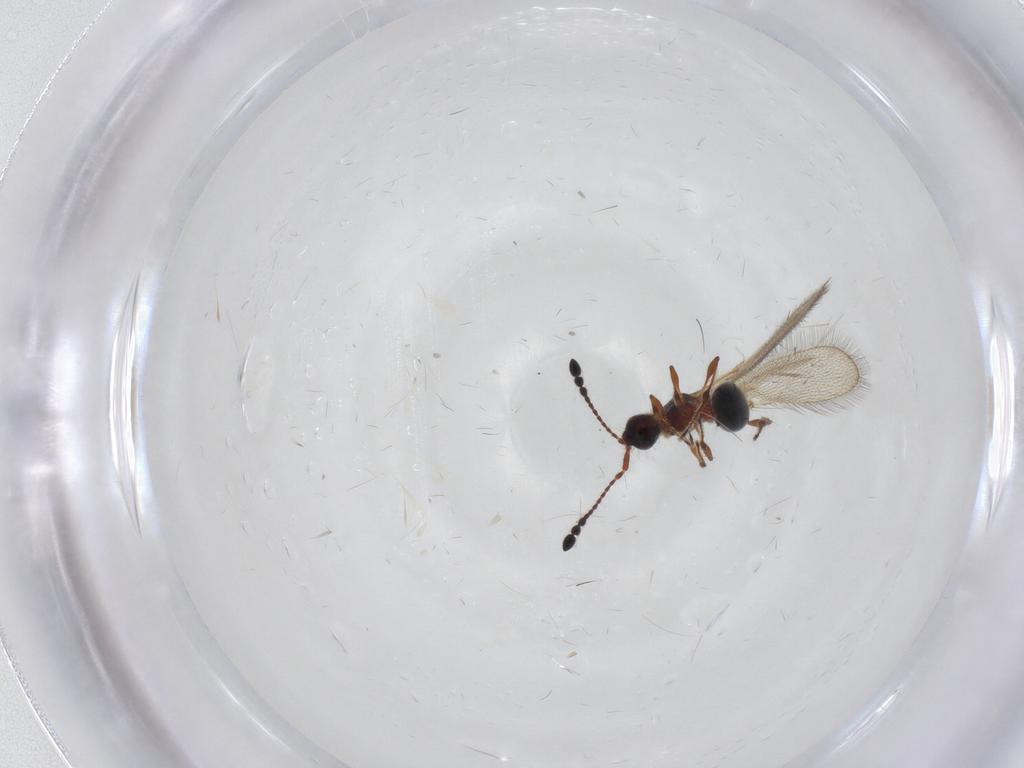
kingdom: Animalia
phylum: Arthropoda
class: Insecta
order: Hymenoptera
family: Diapriidae
